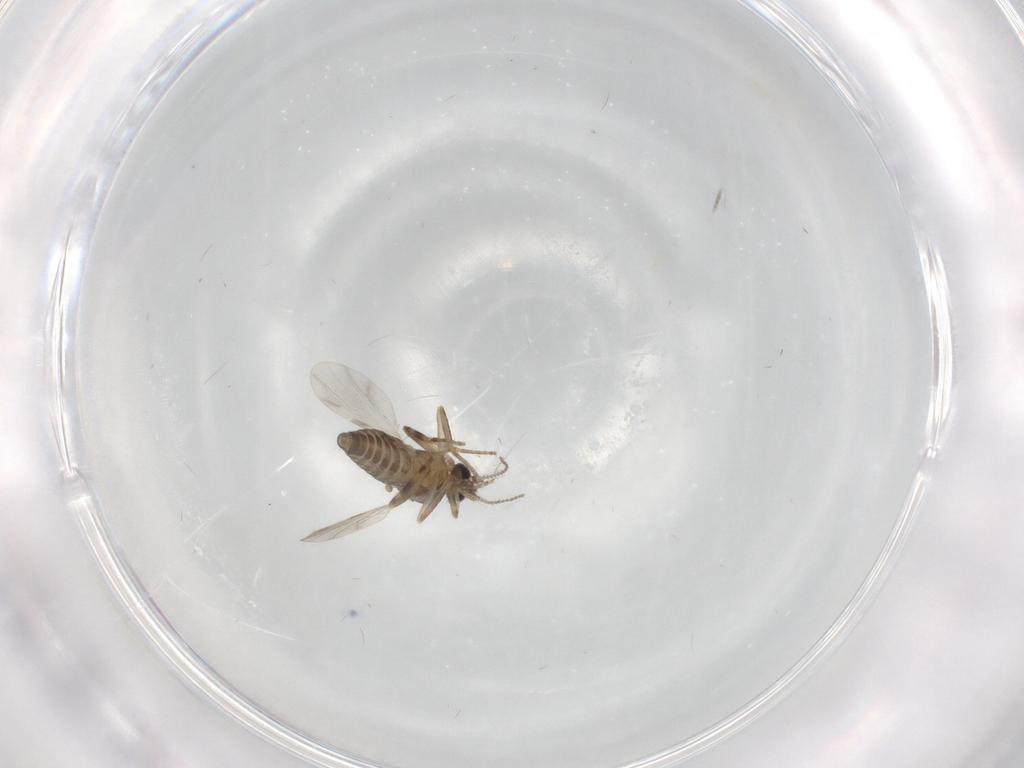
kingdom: Animalia
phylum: Arthropoda
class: Insecta
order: Diptera
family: Ceratopogonidae
